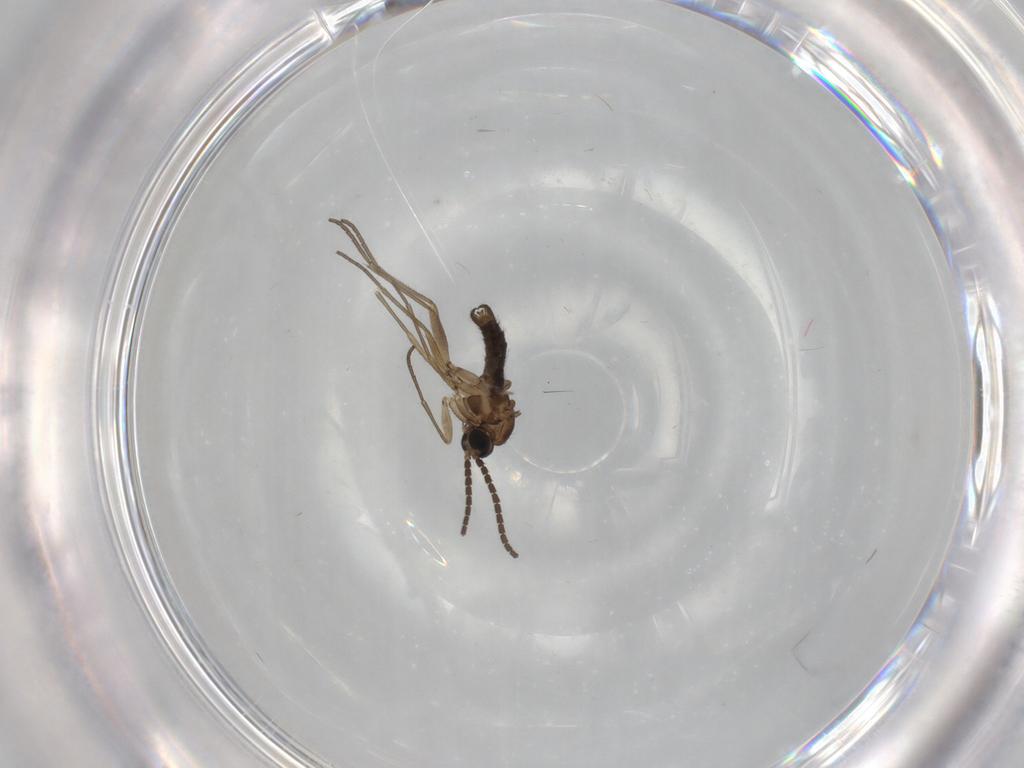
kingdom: Animalia
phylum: Arthropoda
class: Insecta
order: Diptera
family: Sciaridae
